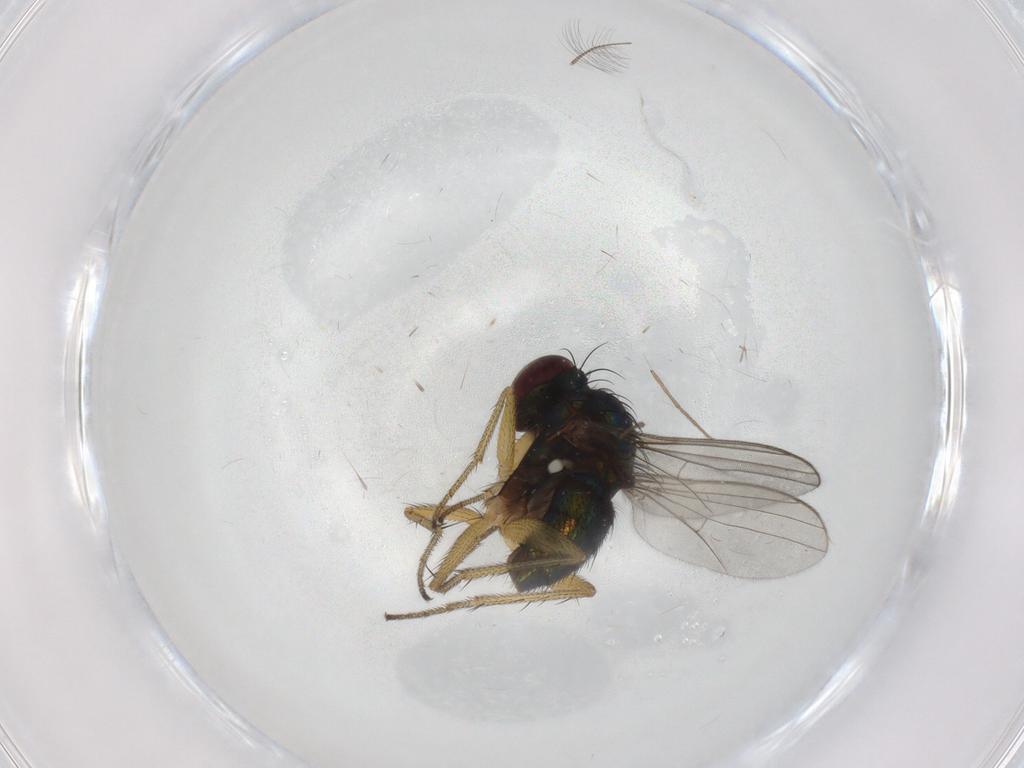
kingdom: Animalia
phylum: Arthropoda
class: Insecta
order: Diptera
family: Dolichopodidae
